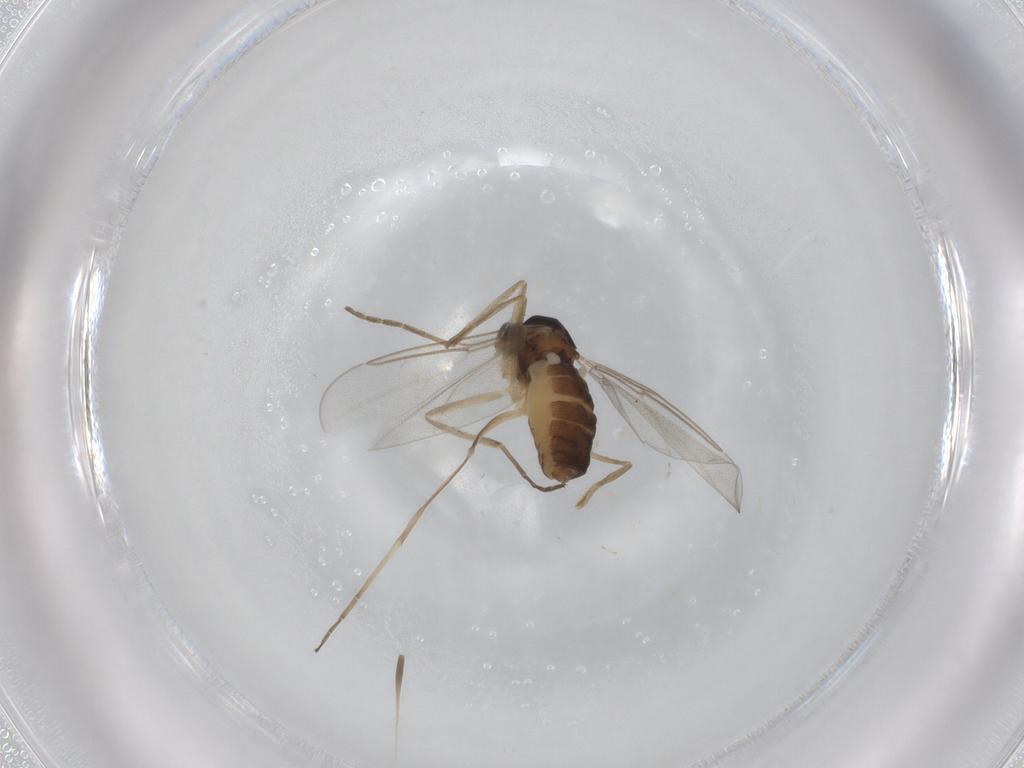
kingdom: Animalia
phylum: Arthropoda
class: Insecta
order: Diptera
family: Cecidomyiidae
